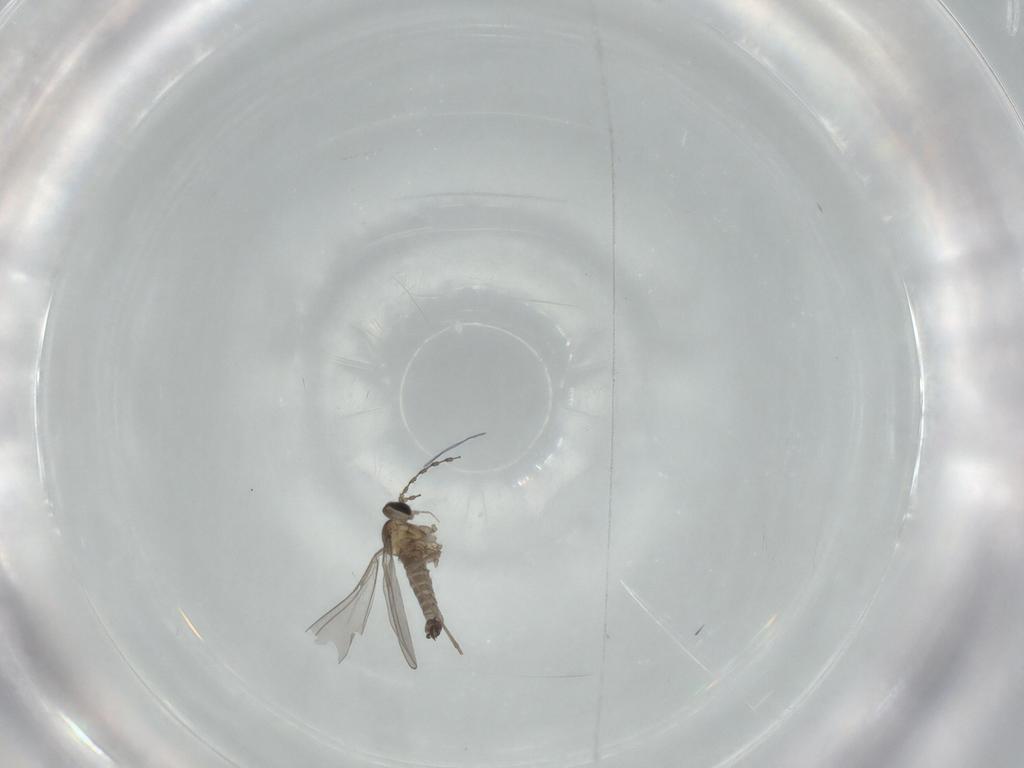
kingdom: Animalia
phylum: Arthropoda
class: Insecta
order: Diptera
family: Cecidomyiidae
